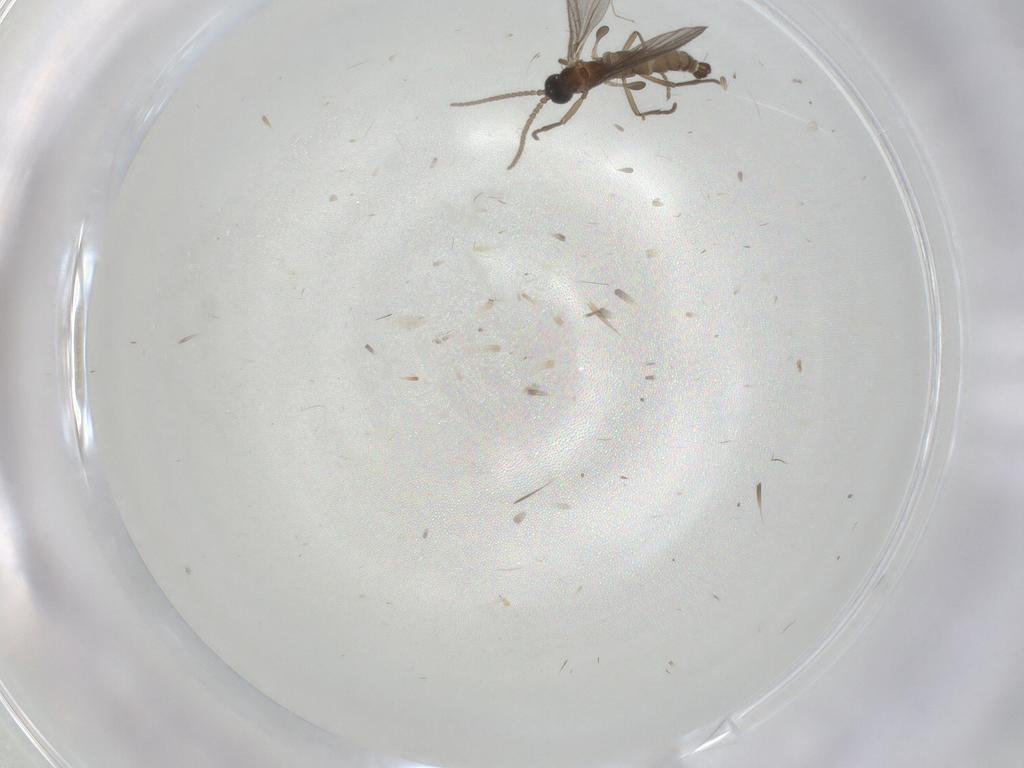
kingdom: Animalia
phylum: Arthropoda
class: Insecta
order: Diptera
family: Sciaridae
